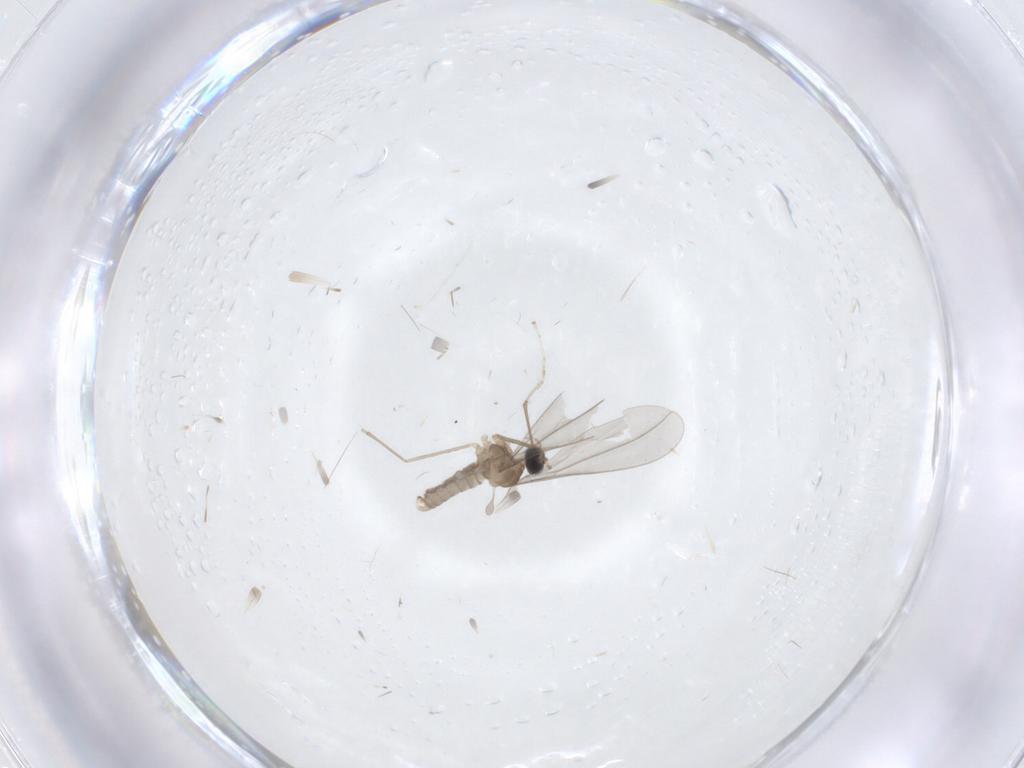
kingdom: Animalia
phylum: Arthropoda
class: Insecta
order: Diptera
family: Cecidomyiidae
